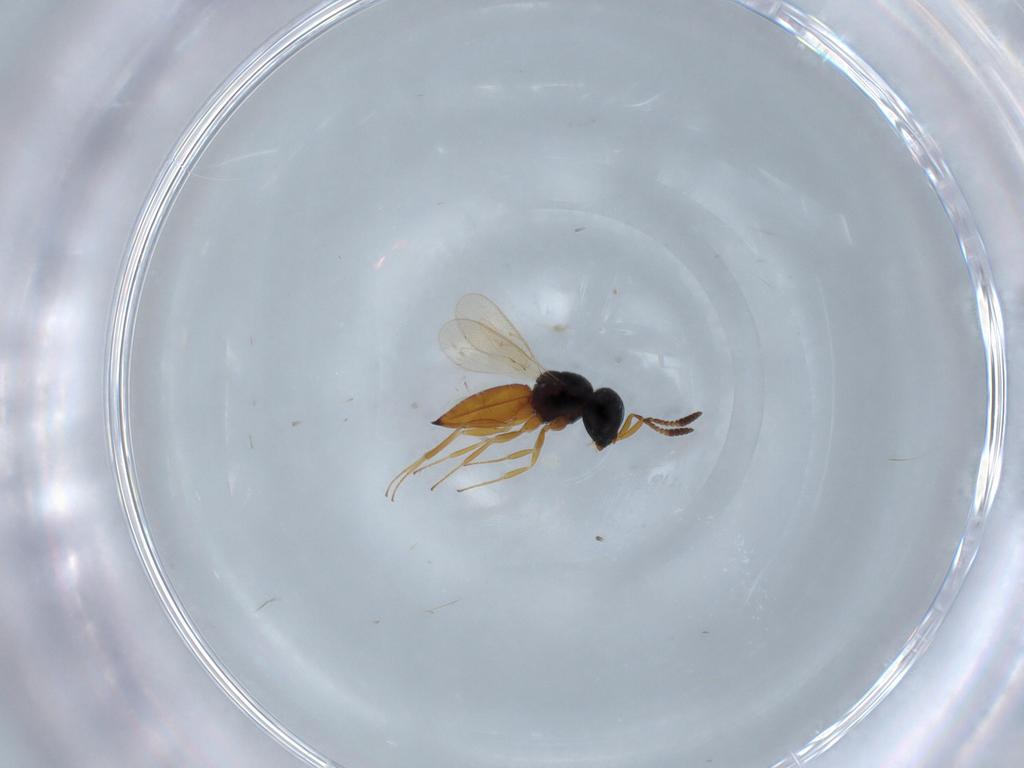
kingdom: Animalia
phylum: Arthropoda
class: Insecta
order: Hymenoptera
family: Scelionidae
